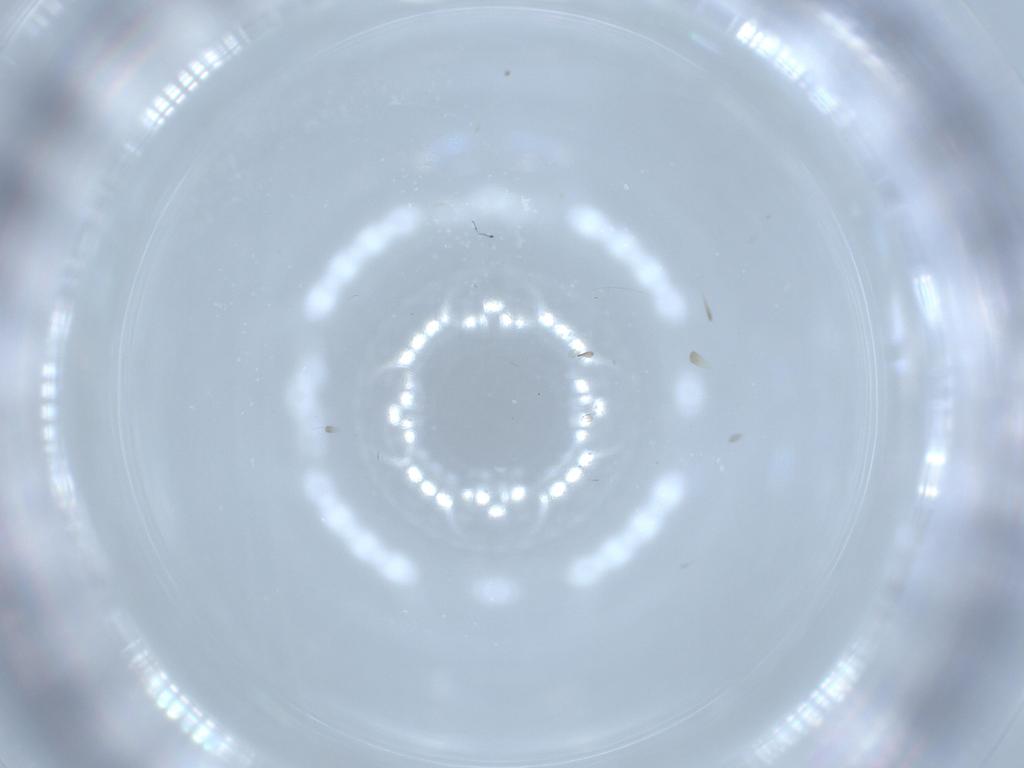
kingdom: Animalia
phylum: Arthropoda
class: Insecta
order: Diptera
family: Psychodidae
